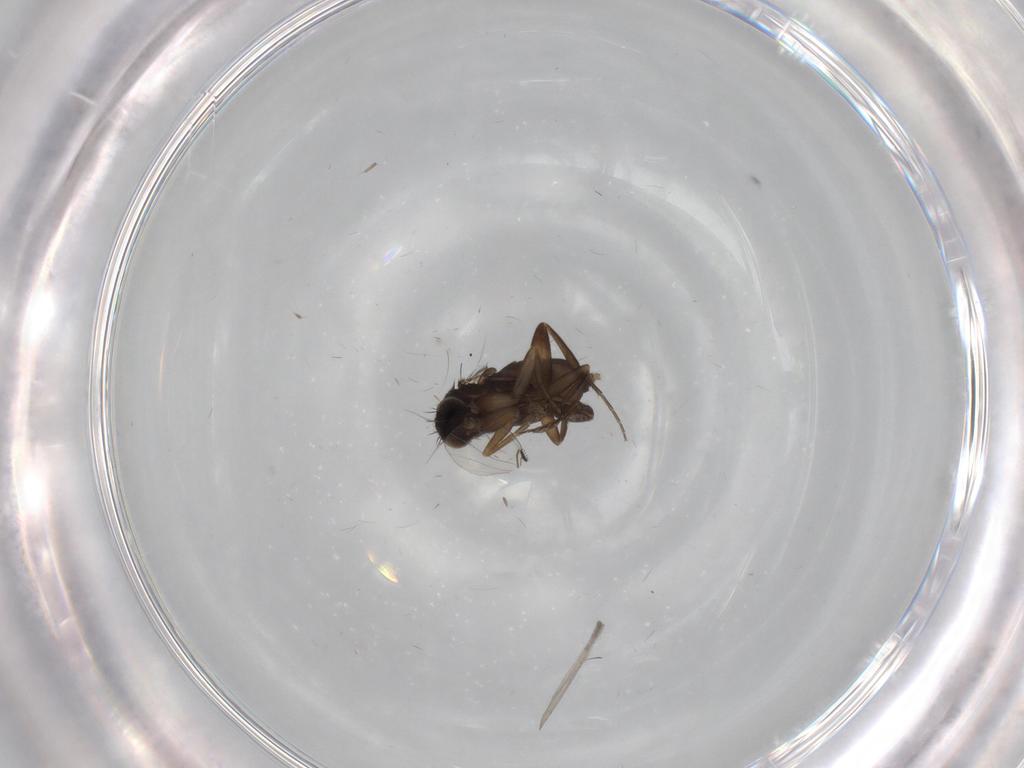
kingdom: Animalia
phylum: Arthropoda
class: Insecta
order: Diptera
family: Phoridae
